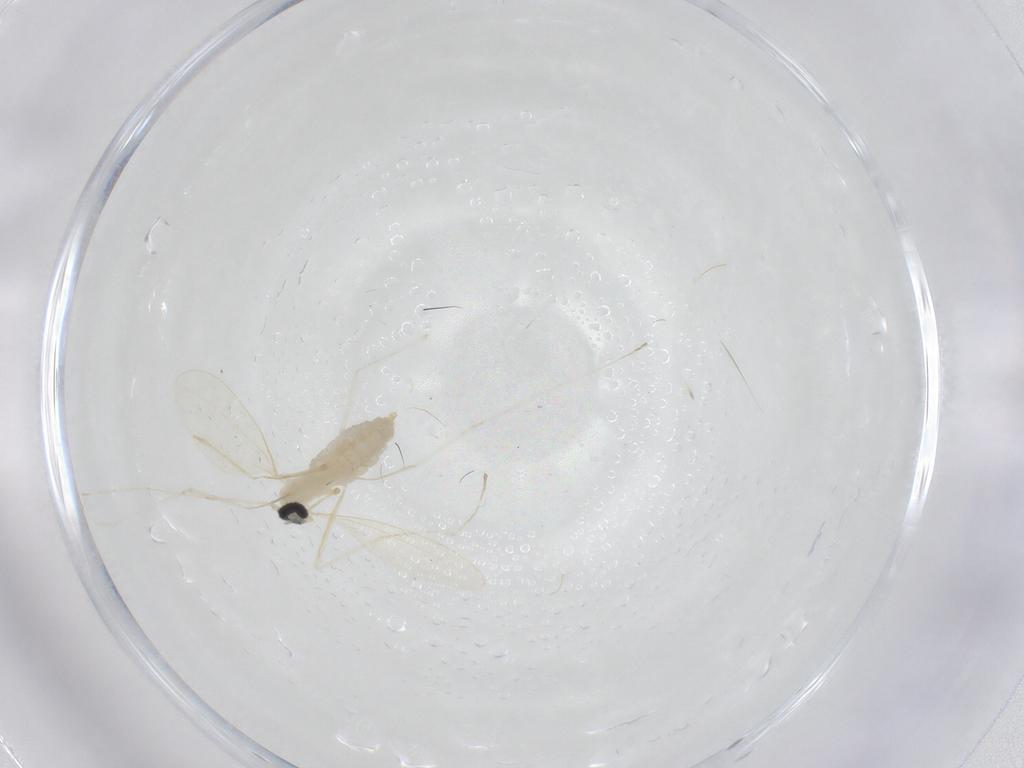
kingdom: Animalia
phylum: Arthropoda
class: Insecta
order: Diptera
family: Cecidomyiidae
